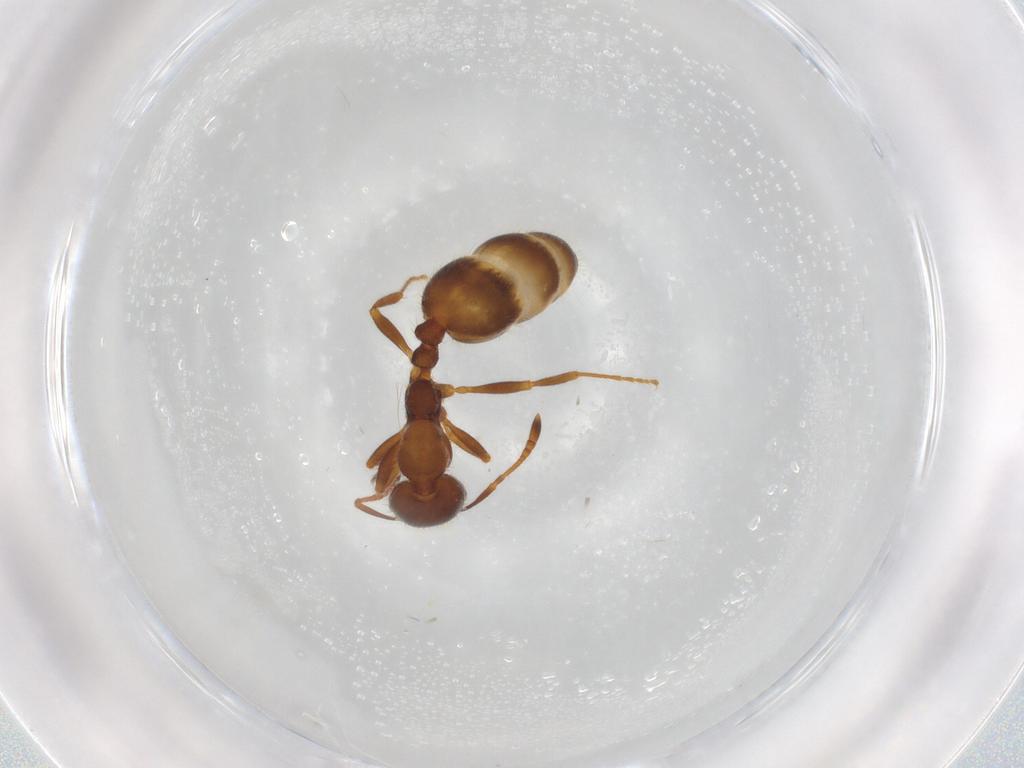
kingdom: Animalia
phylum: Arthropoda
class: Insecta
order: Hymenoptera
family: Formicidae
